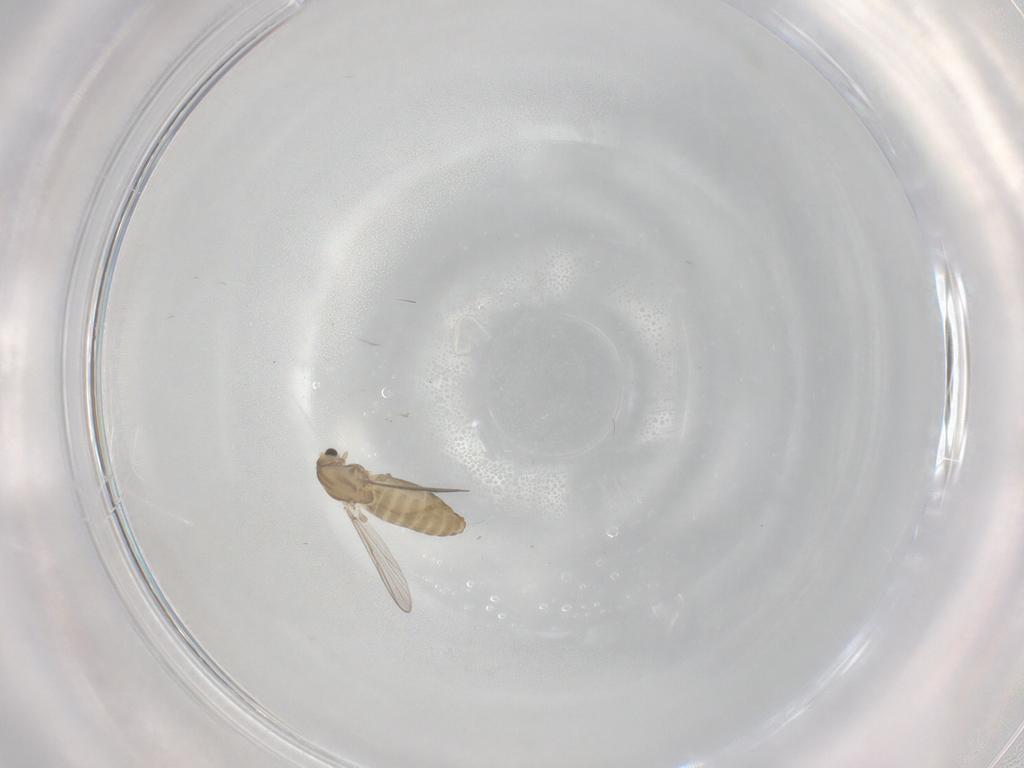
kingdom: Animalia
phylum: Arthropoda
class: Insecta
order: Diptera
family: Chironomidae
